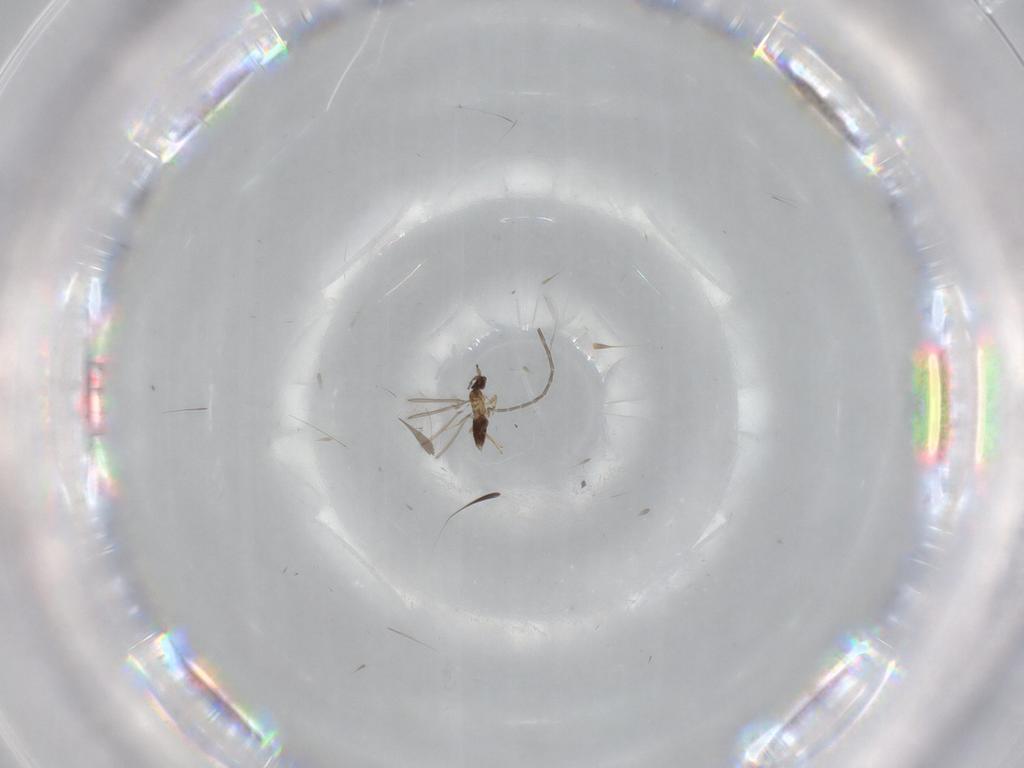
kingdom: Animalia
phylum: Arthropoda
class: Insecta
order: Hymenoptera
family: Mymaridae
